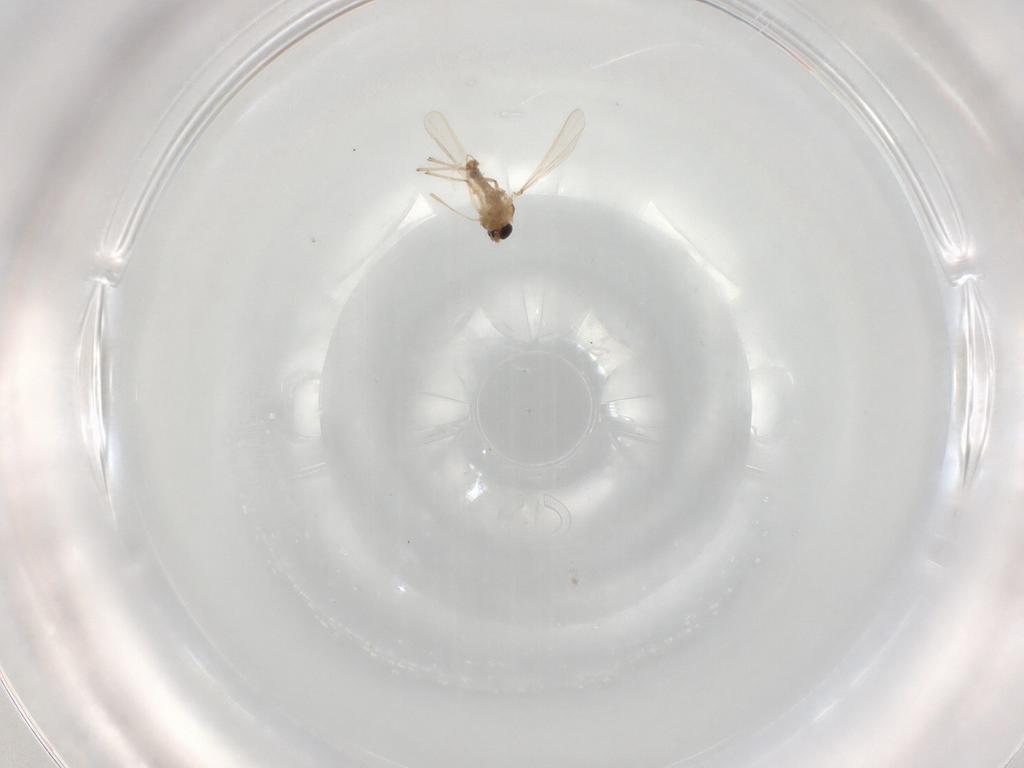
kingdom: Animalia
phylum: Arthropoda
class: Insecta
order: Diptera
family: Chironomidae
